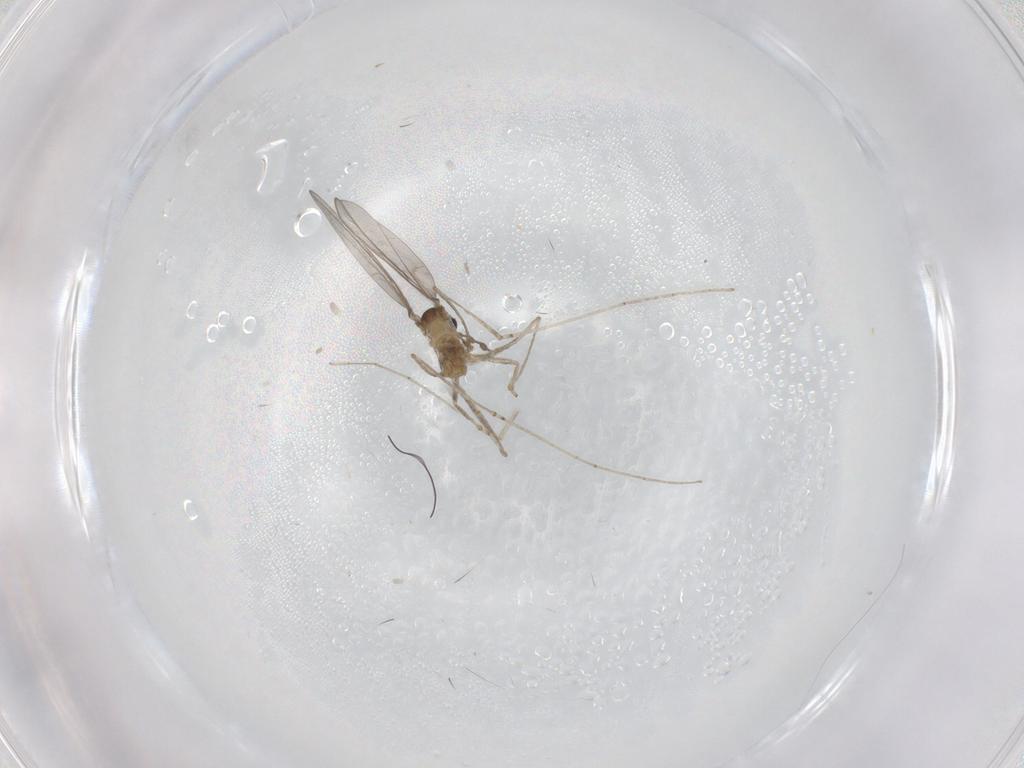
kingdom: Animalia
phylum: Arthropoda
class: Insecta
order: Diptera
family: Cecidomyiidae
